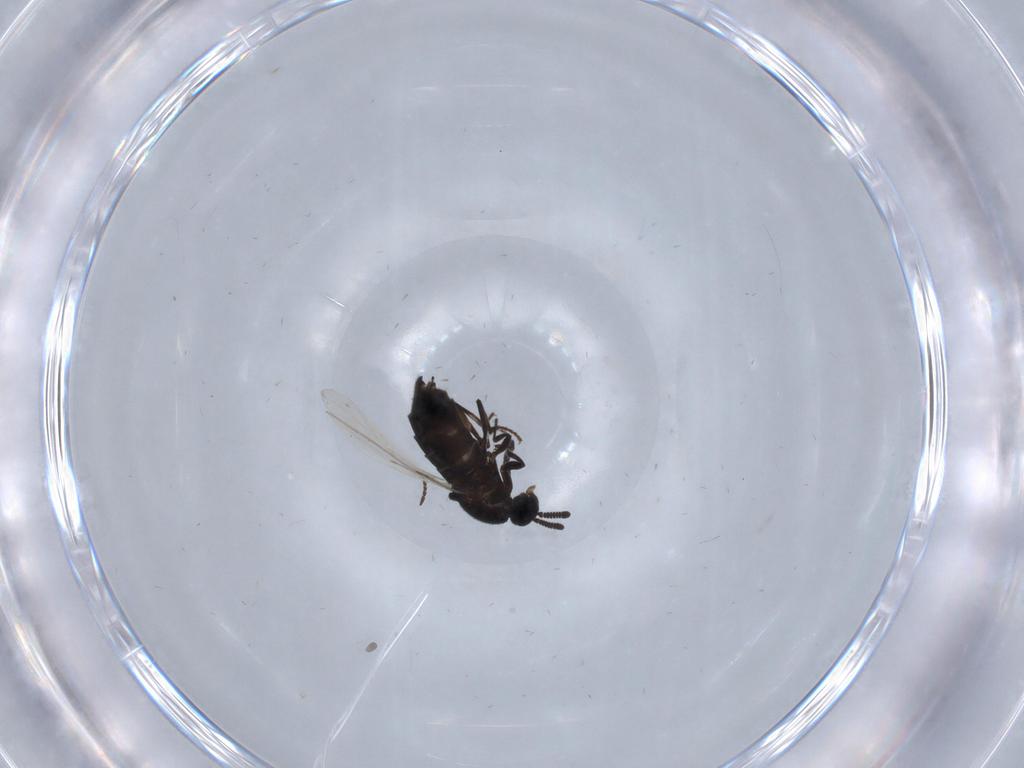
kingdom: Animalia
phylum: Arthropoda
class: Insecta
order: Diptera
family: Scatopsidae
